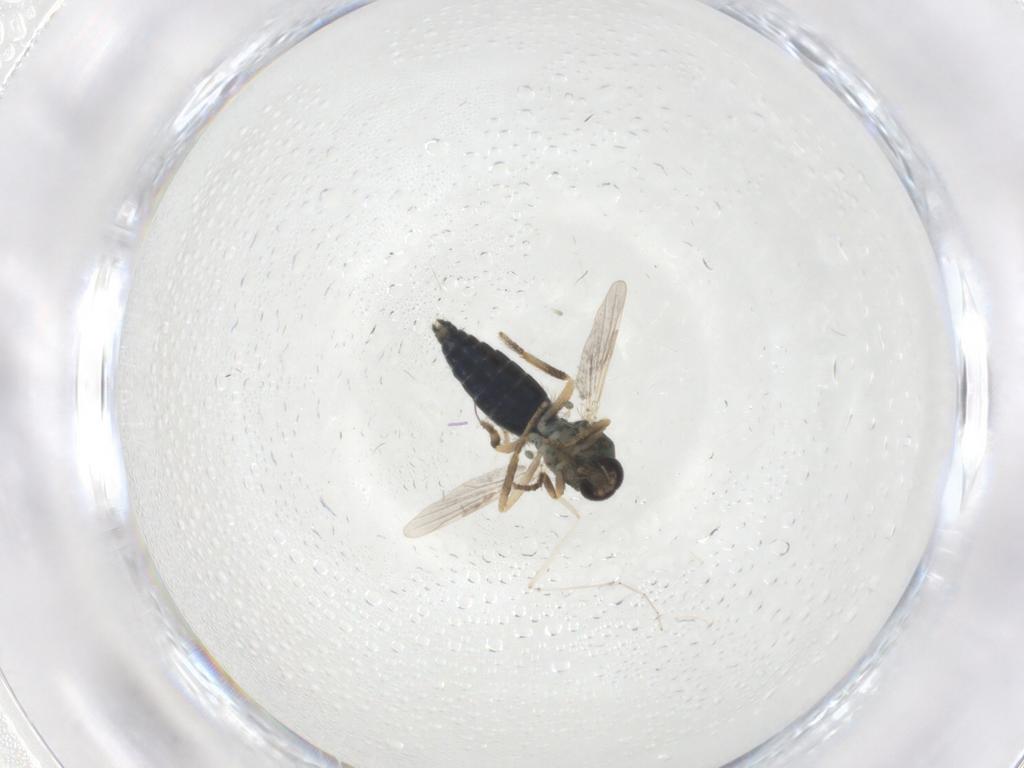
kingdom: Animalia
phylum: Arthropoda
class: Insecta
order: Diptera
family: Ceratopogonidae
